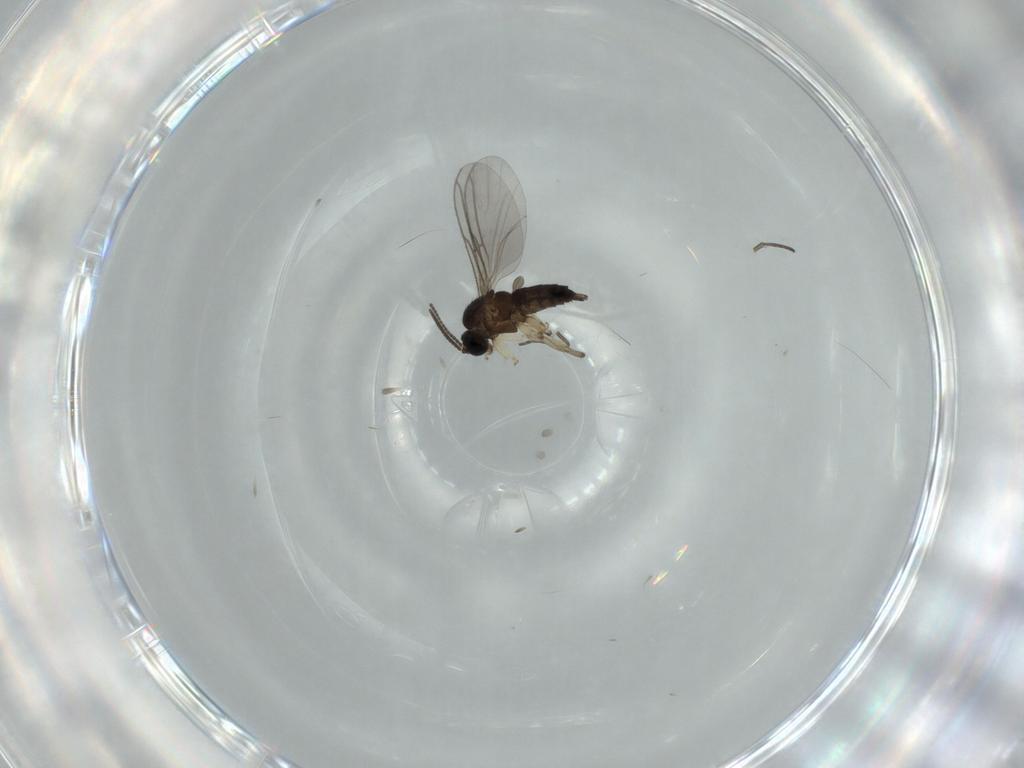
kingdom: Animalia
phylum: Arthropoda
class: Insecta
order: Diptera
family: Sciaridae
